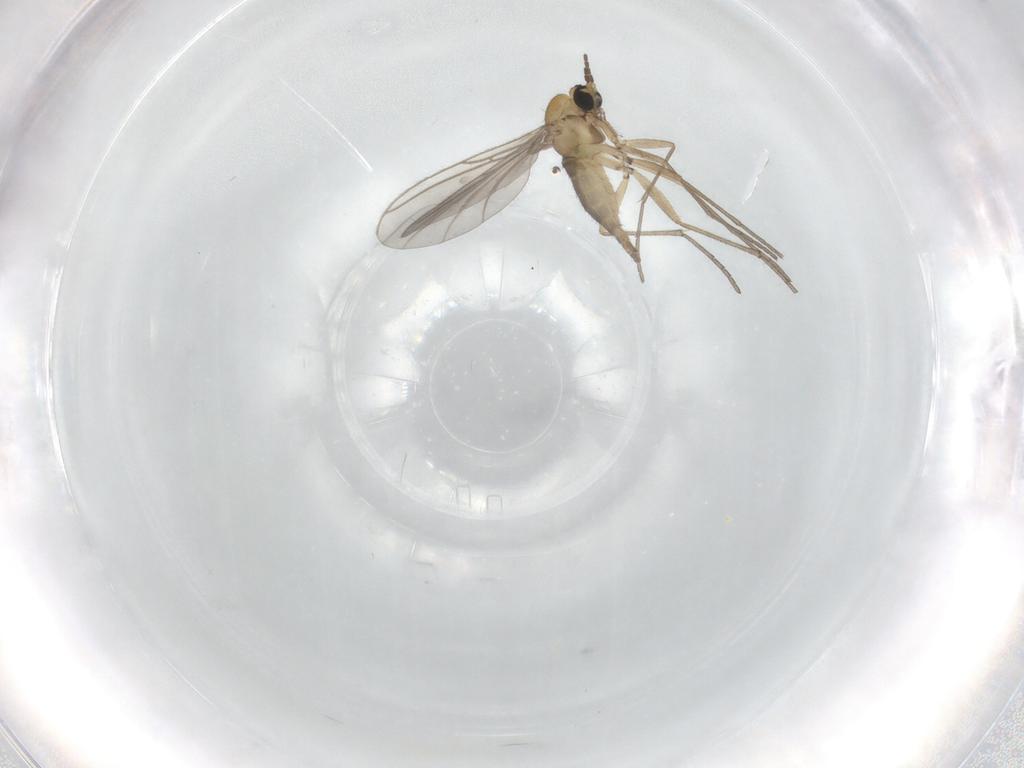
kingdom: Animalia
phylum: Arthropoda
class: Insecta
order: Diptera
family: Sciaridae
